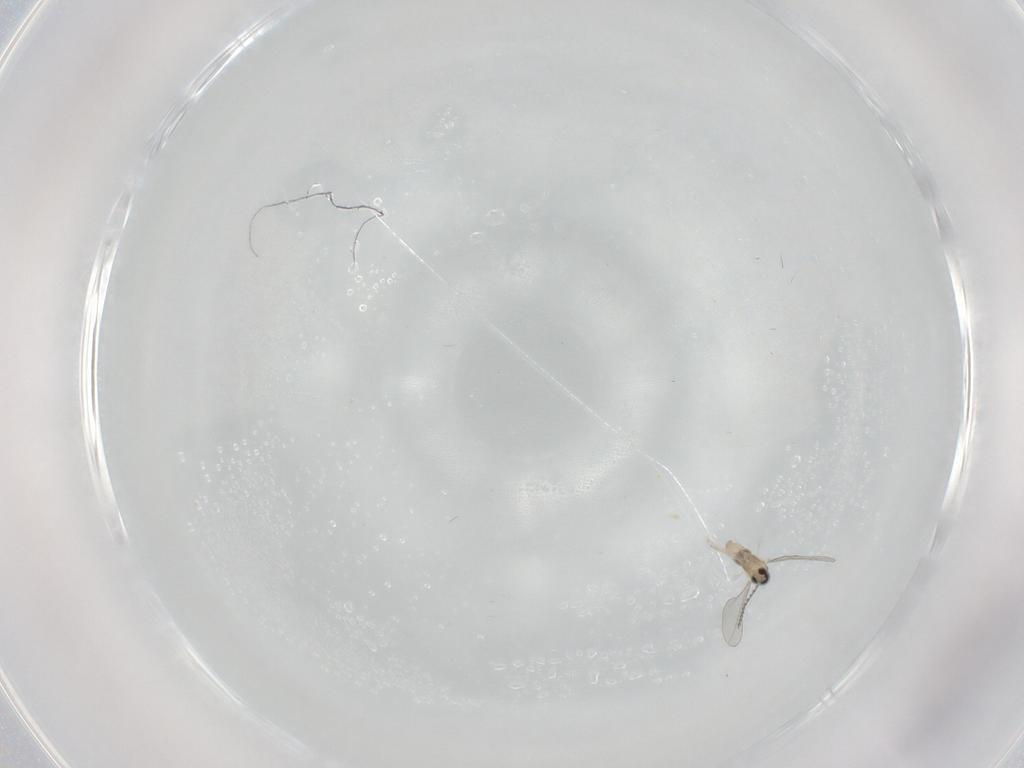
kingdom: Animalia
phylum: Arthropoda
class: Insecta
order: Diptera
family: Cecidomyiidae
